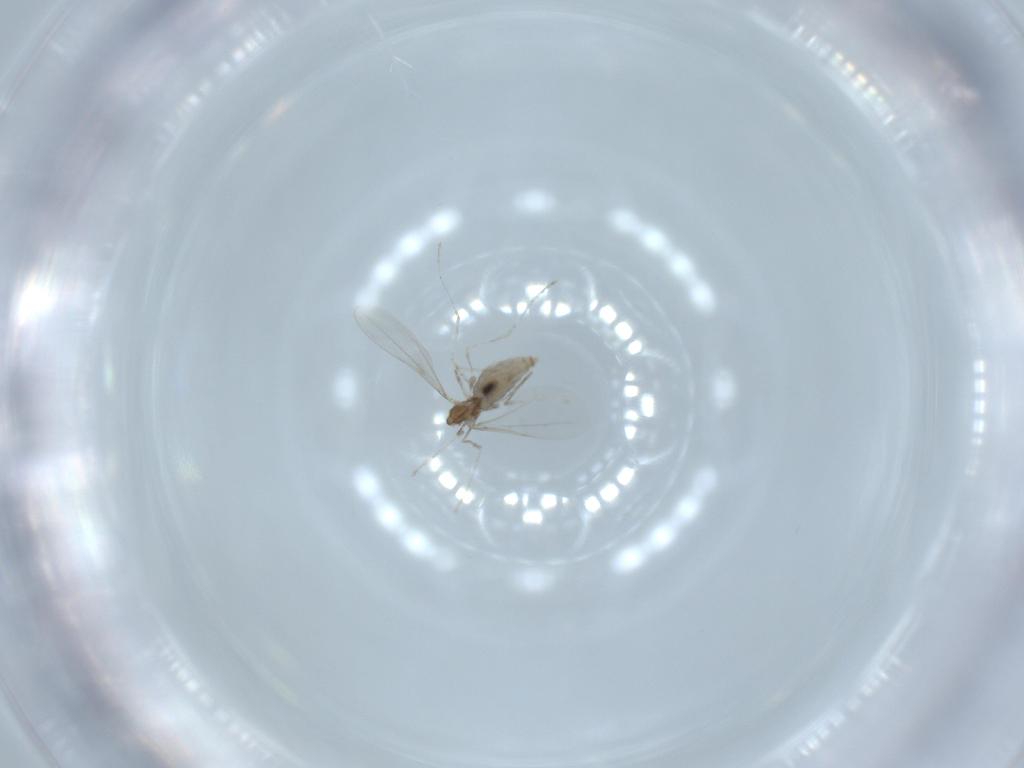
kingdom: Animalia
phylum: Arthropoda
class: Insecta
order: Diptera
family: Cecidomyiidae
